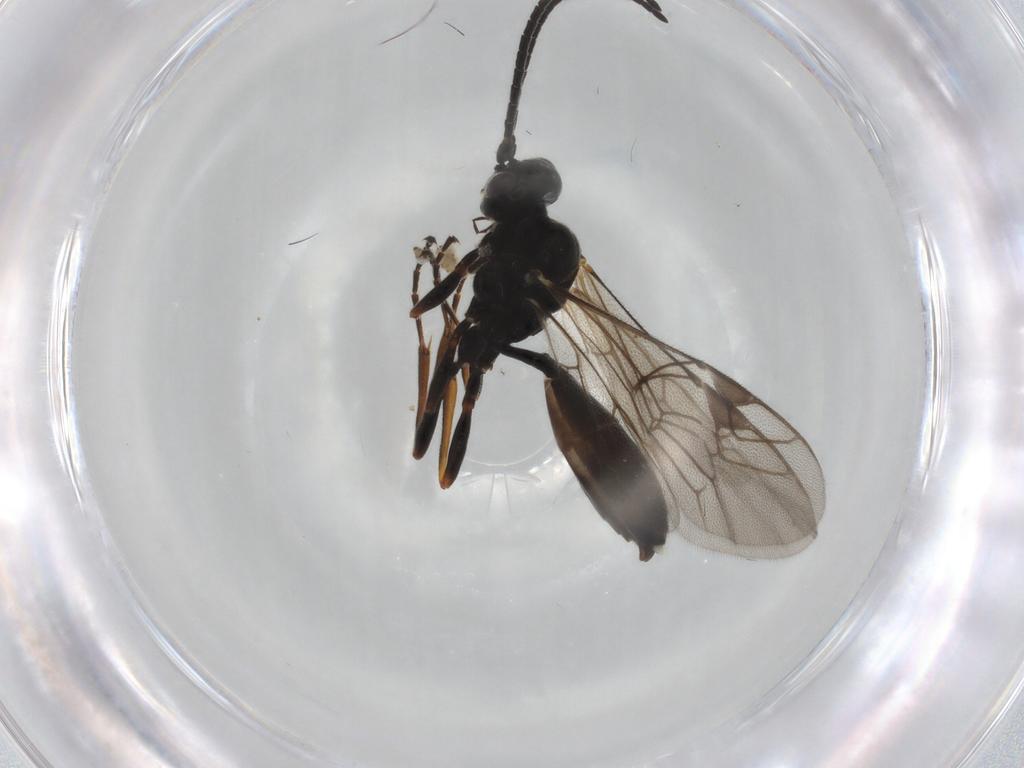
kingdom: Animalia
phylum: Arthropoda
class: Insecta
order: Hymenoptera
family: Ichneumonidae
